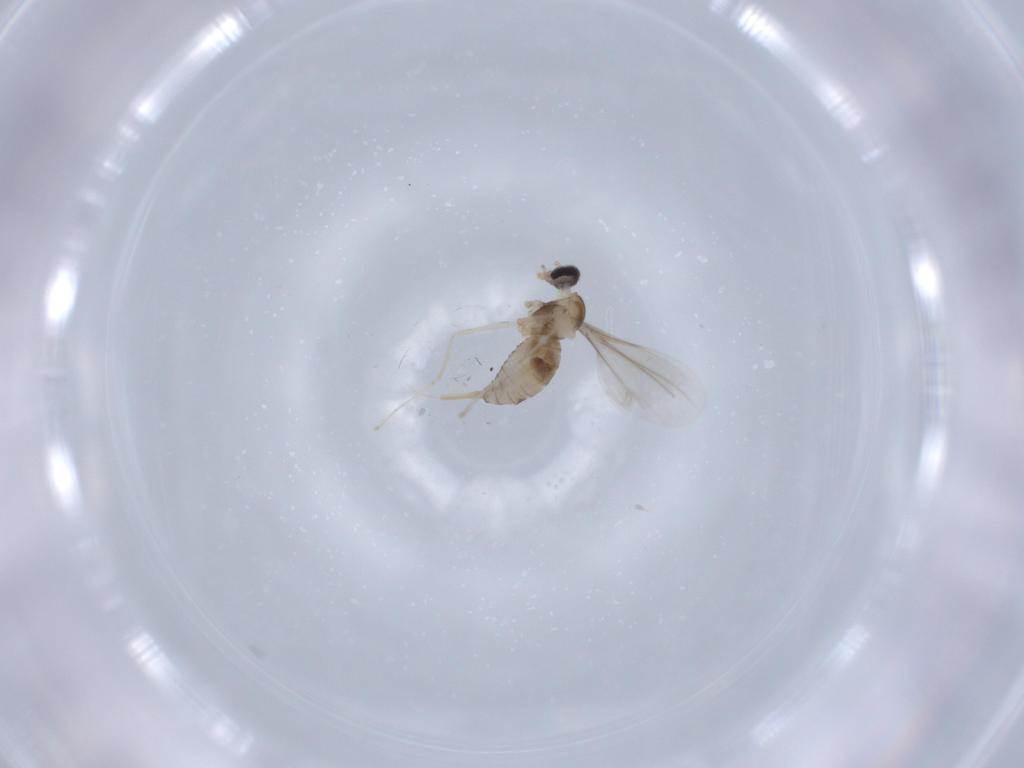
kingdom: Animalia
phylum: Arthropoda
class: Insecta
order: Diptera
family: Cecidomyiidae
